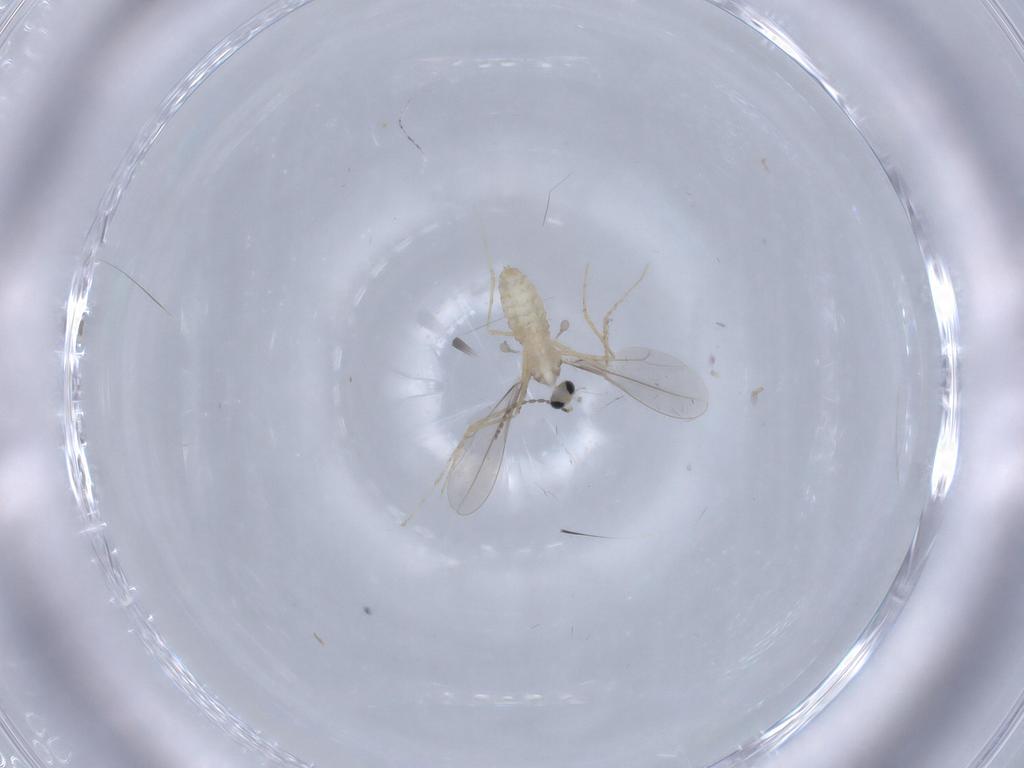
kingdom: Animalia
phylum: Arthropoda
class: Insecta
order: Diptera
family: Cecidomyiidae
